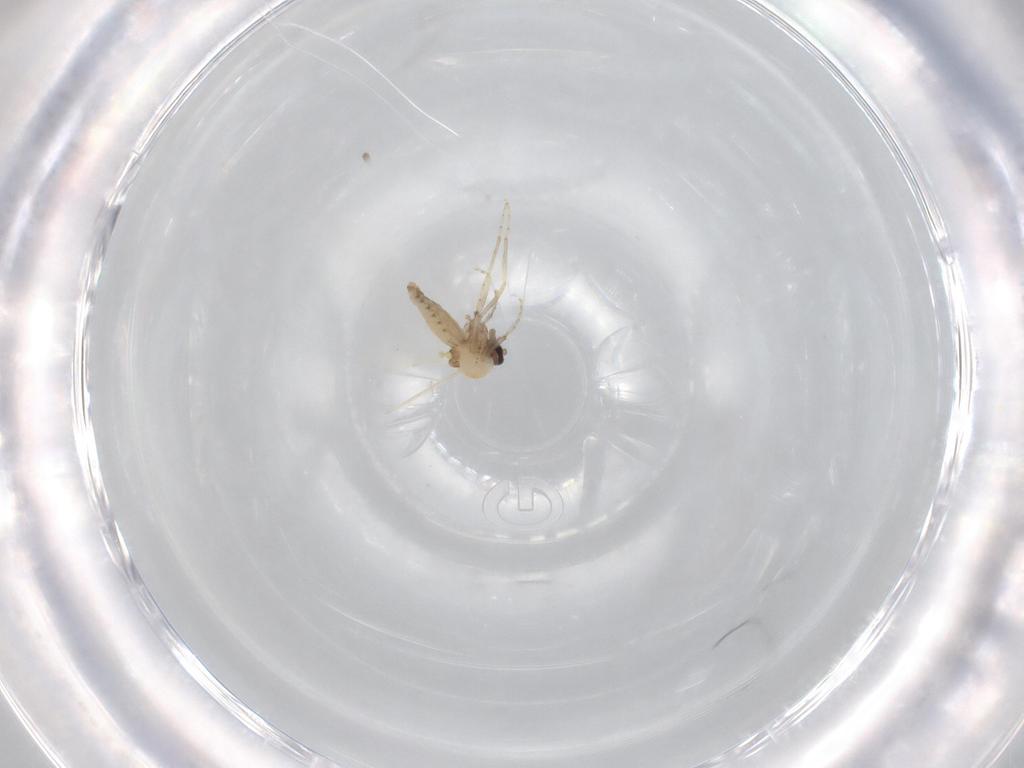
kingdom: Animalia
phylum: Arthropoda
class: Insecta
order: Diptera
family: Ceratopogonidae
